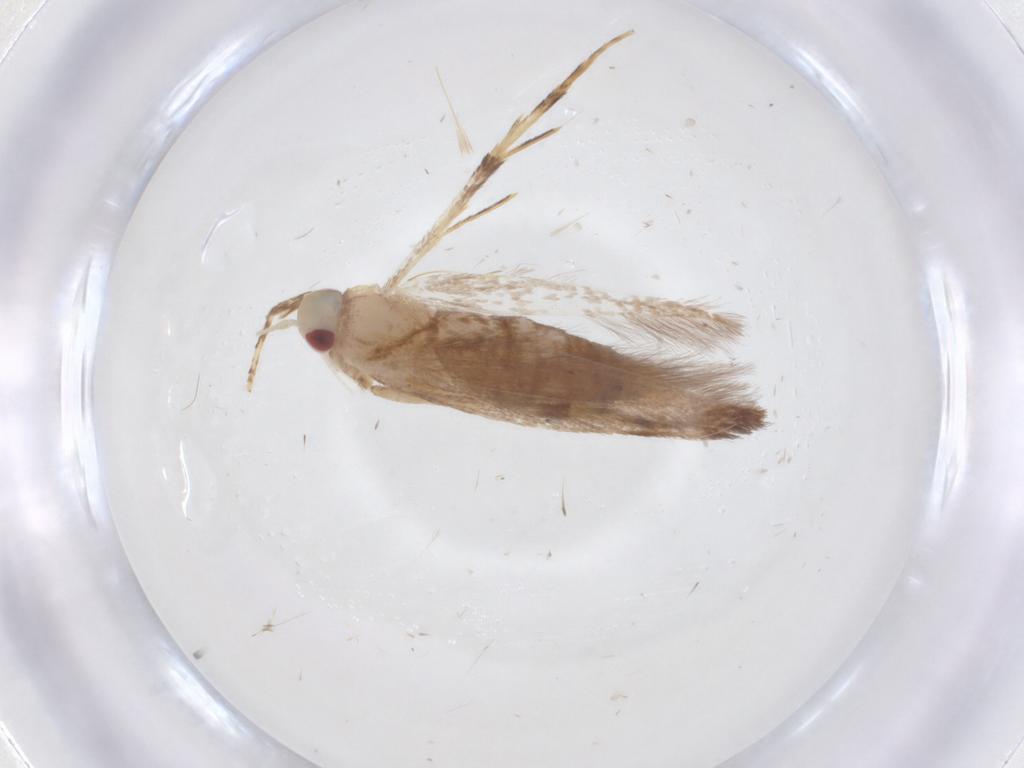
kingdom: Animalia
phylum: Arthropoda
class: Insecta
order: Lepidoptera
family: Cosmopterigidae
